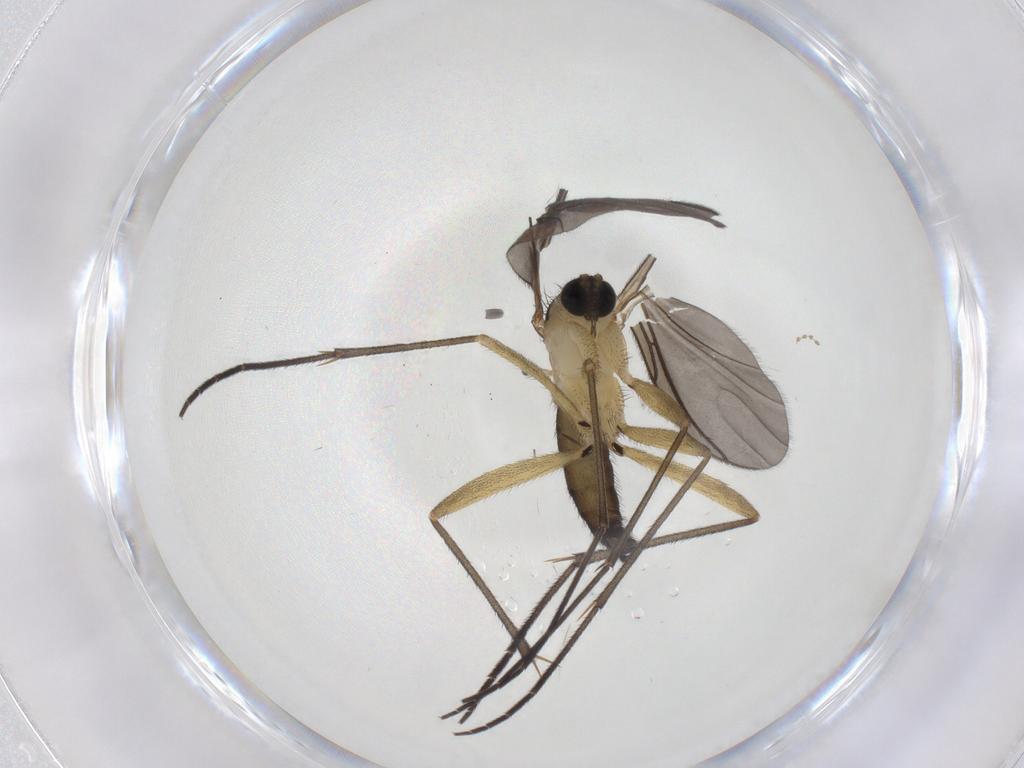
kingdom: Animalia
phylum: Arthropoda
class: Insecta
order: Diptera
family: Sciaridae
